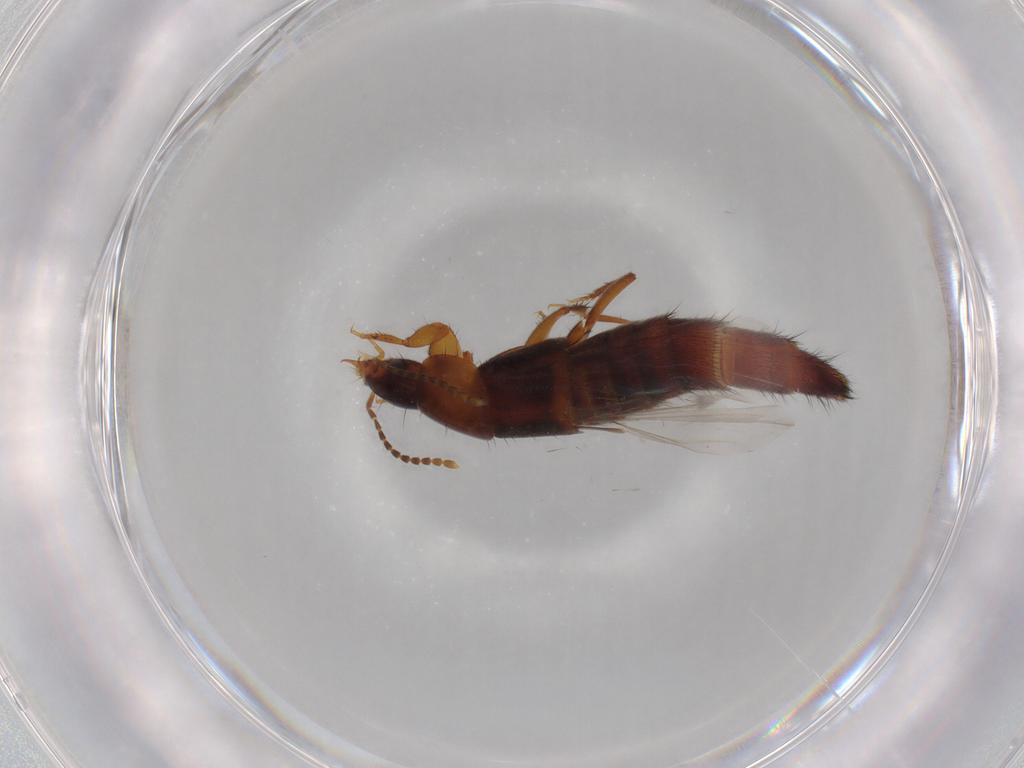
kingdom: Animalia
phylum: Arthropoda
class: Insecta
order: Coleoptera
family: Staphylinidae
